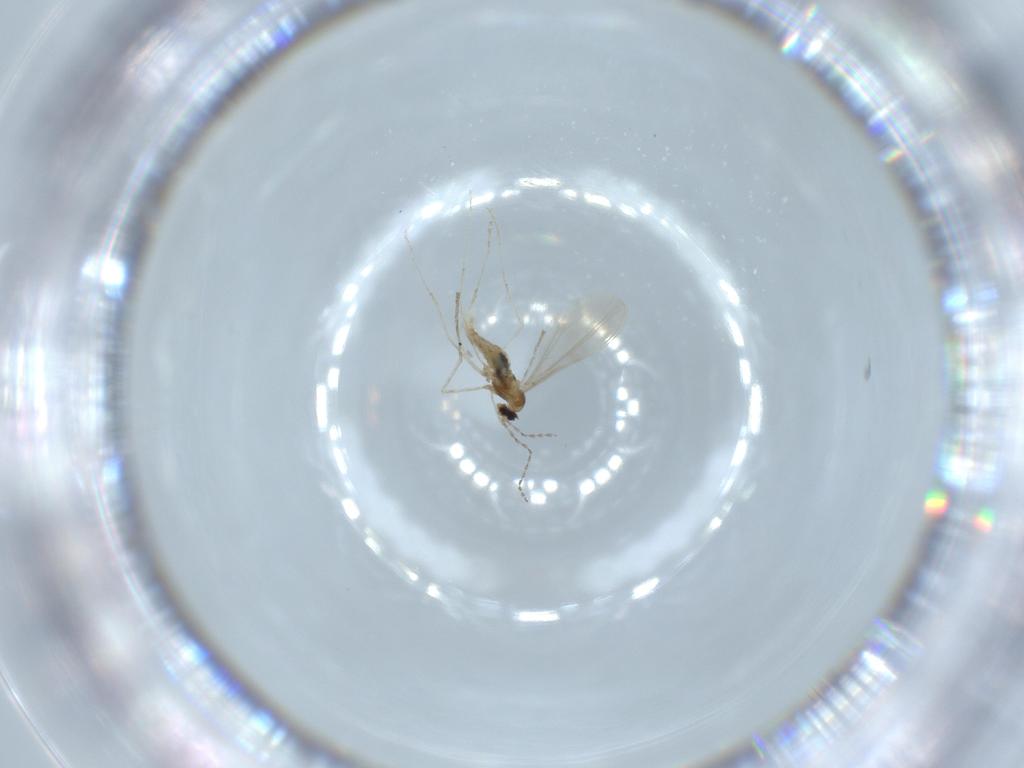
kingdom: Animalia
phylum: Arthropoda
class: Insecta
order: Diptera
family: Cecidomyiidae
